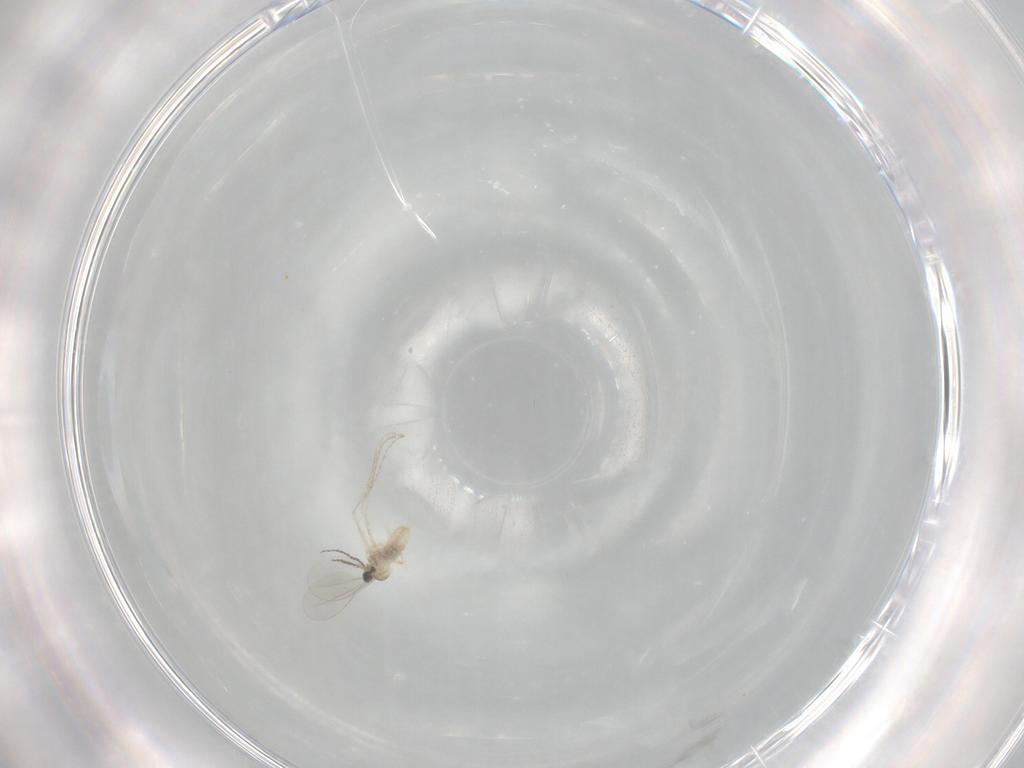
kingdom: Animalia
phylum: Arthropoda
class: Insecta
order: Diptera
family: Cecidomyiidae
